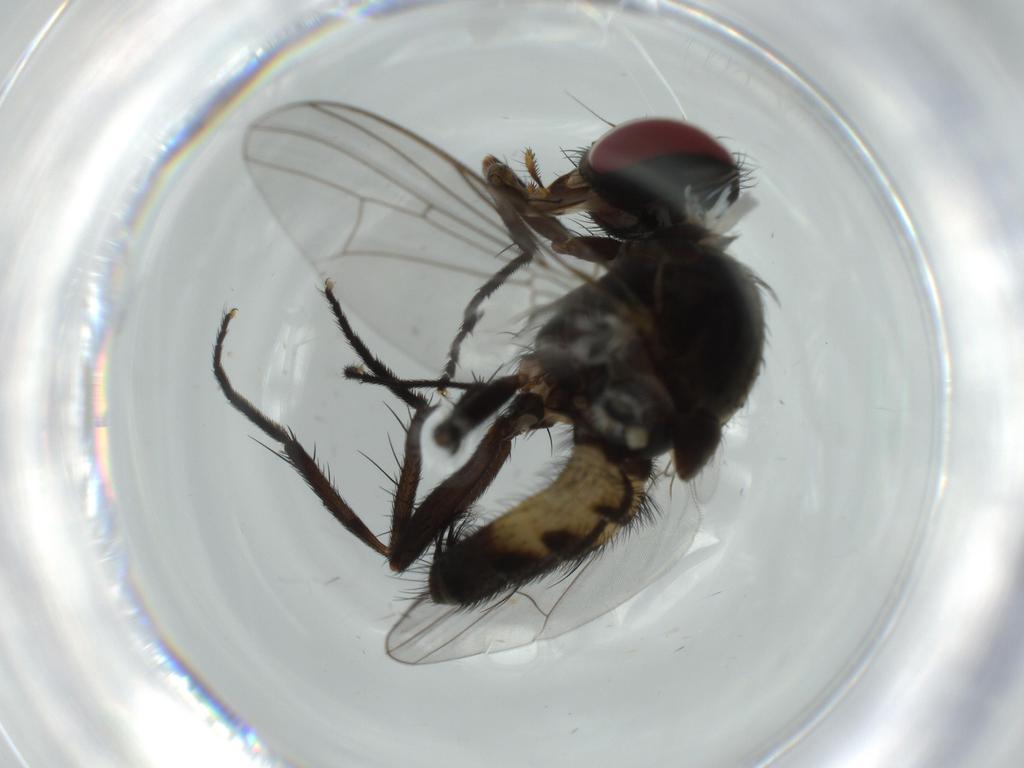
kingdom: Animalia
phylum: Arthropoda
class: Insecta
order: Diptera
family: Fannia
